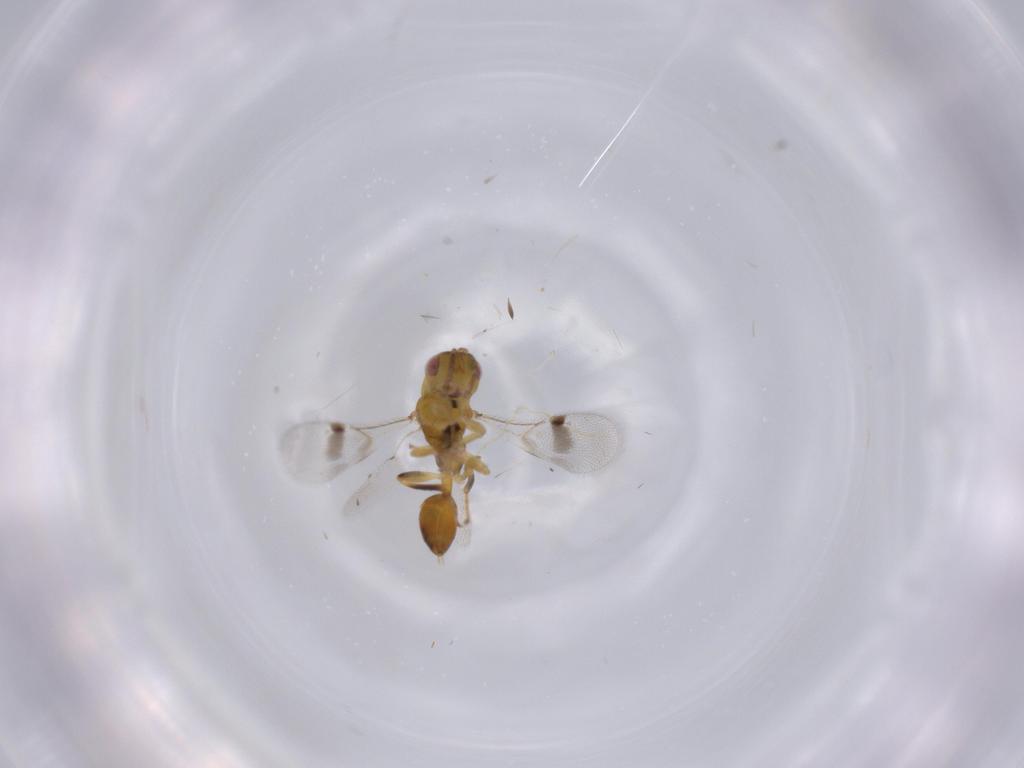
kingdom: Animalia
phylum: Arthropoda
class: Insecta
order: Hymenoptera
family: Eurytomidae
